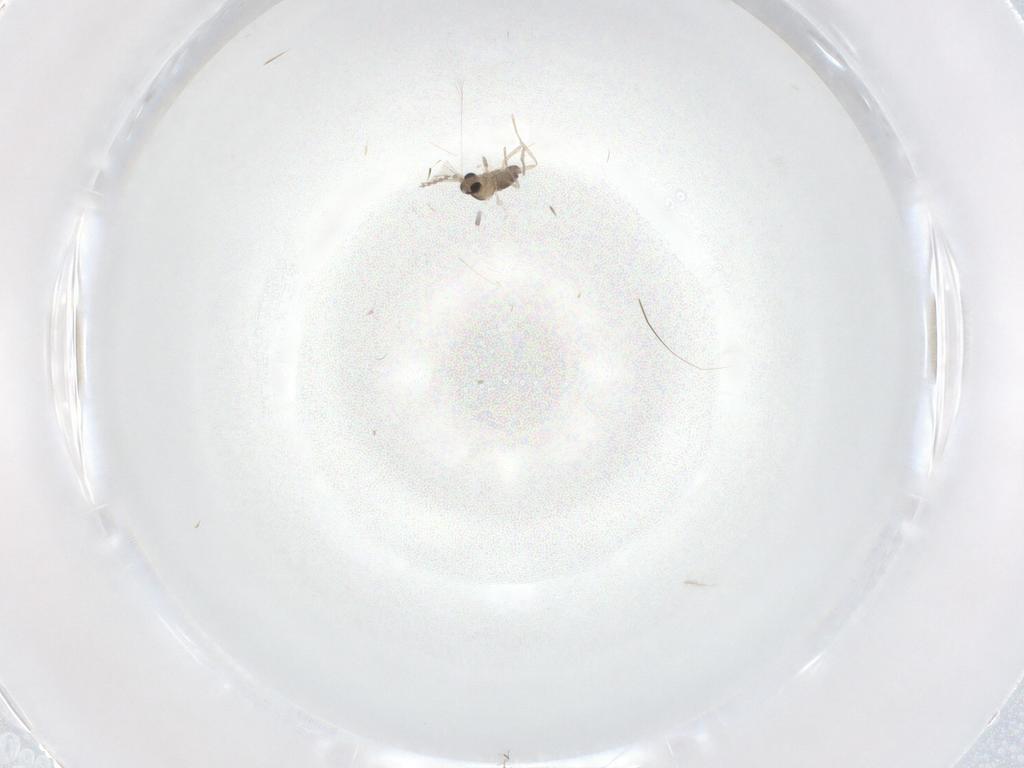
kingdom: Animalia
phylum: Arthropoda
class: Insecta
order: Diptera
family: Cecidomyiidae
